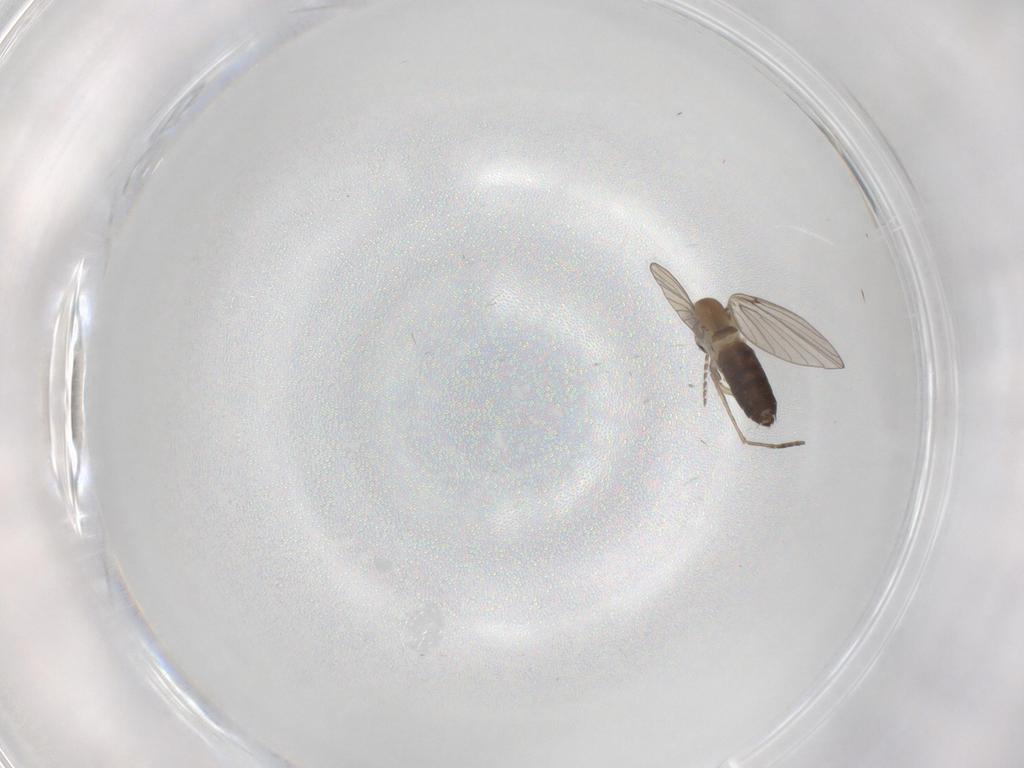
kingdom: Animalia
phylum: Arthropoda
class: Insecta
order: Diptera
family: Psychodidae
